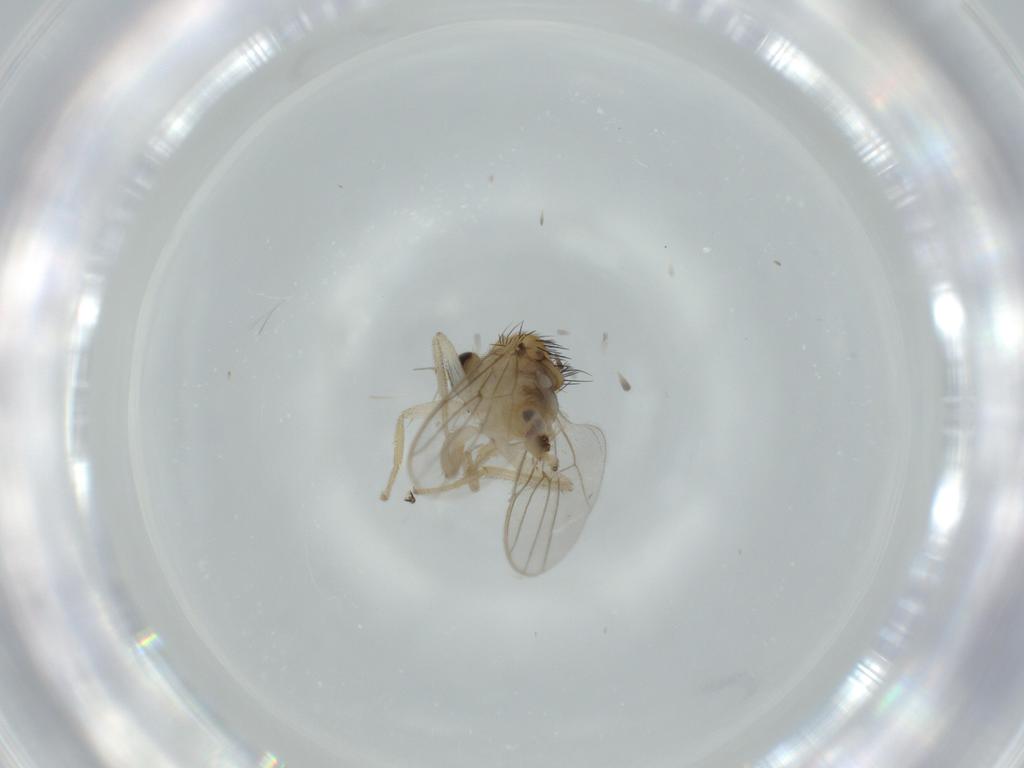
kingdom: Animalia
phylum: Arthropoda
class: Insecta
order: Diptera
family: Hybotidae
